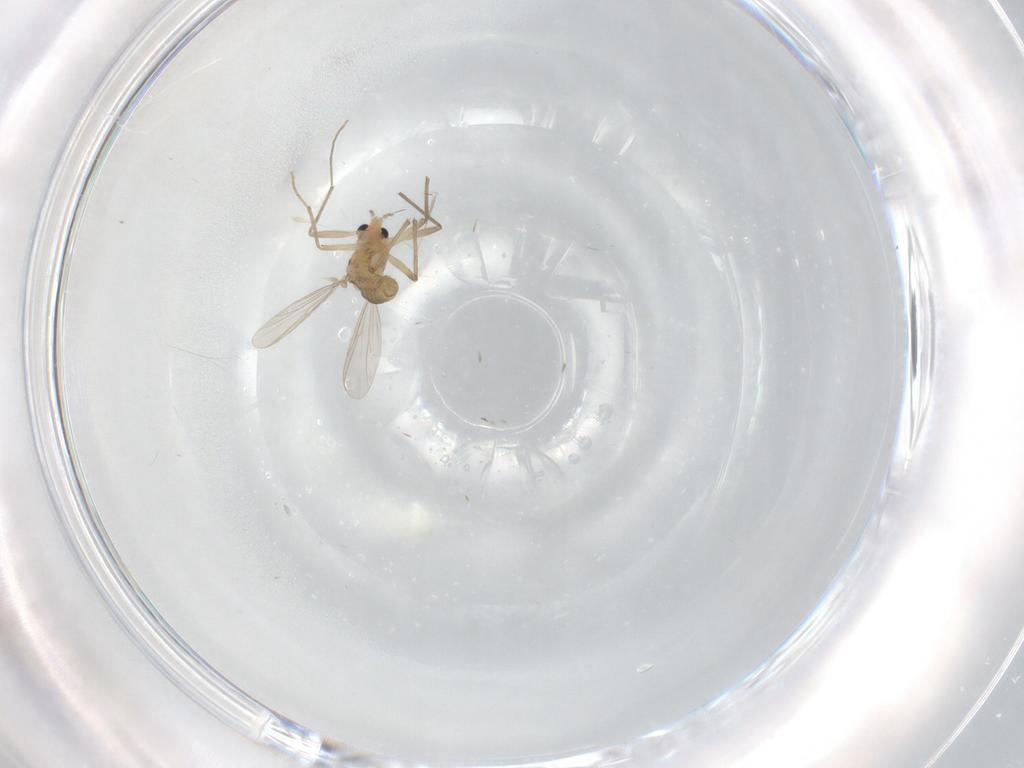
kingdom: Animalia
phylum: Arthropoda
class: Insecta
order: Diptera
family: Chironomidae
